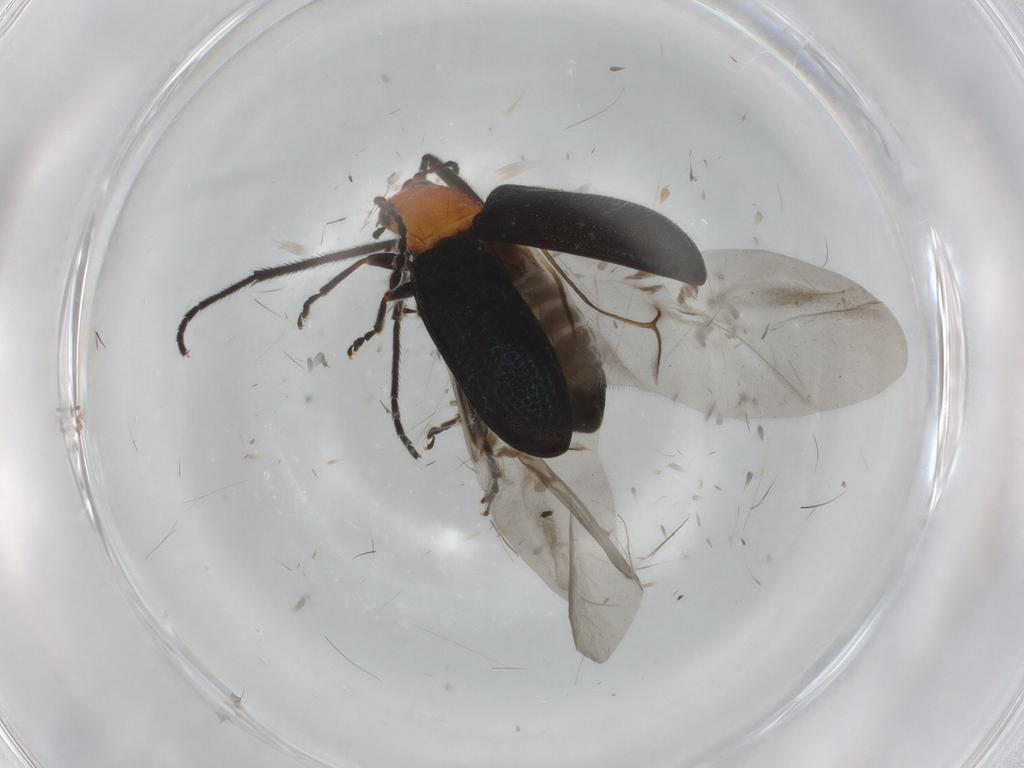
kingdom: Animalia
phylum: Arthropoda
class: Insecta
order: Coleoptera
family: Chrysomelidae
